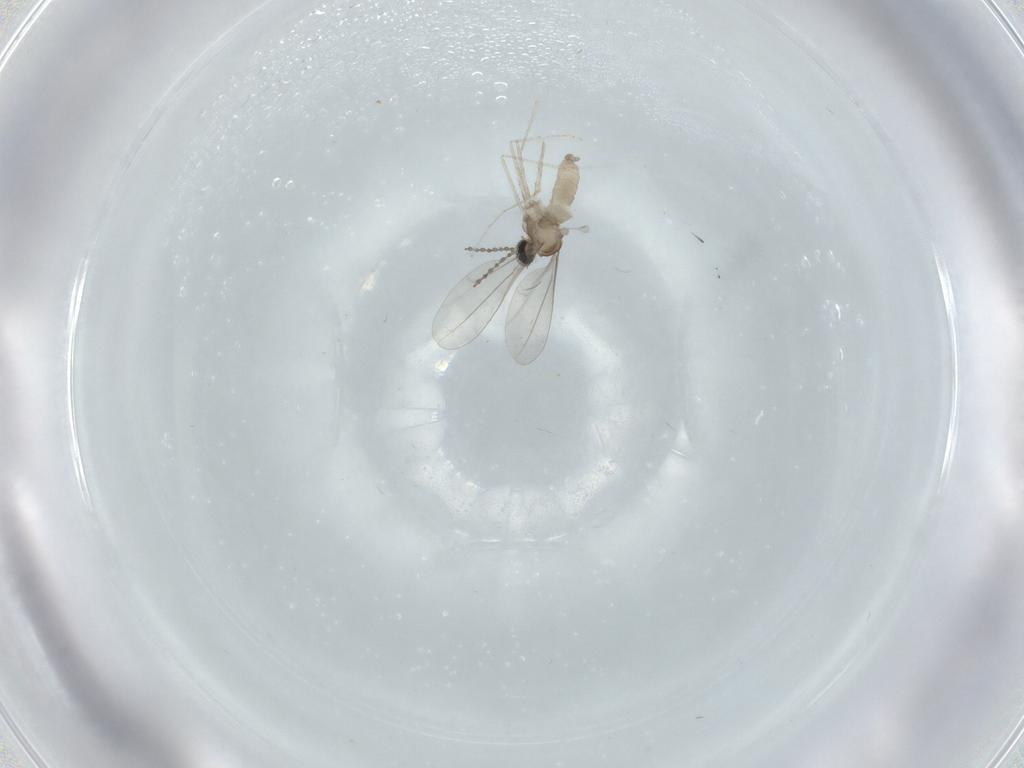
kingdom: Animalia
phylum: Arthropoda
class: Insecta
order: Diptera
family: Cecidomyiidae
